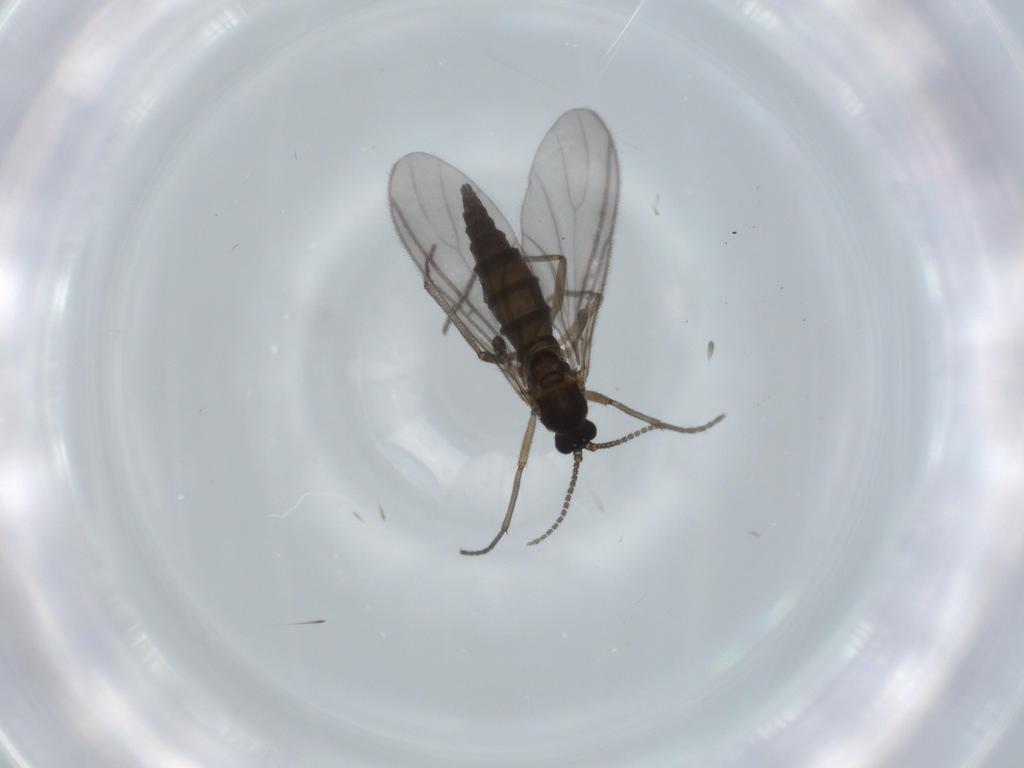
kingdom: Animalia
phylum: Arthropoda
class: Insecta
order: Diptera
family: Sciaridae
